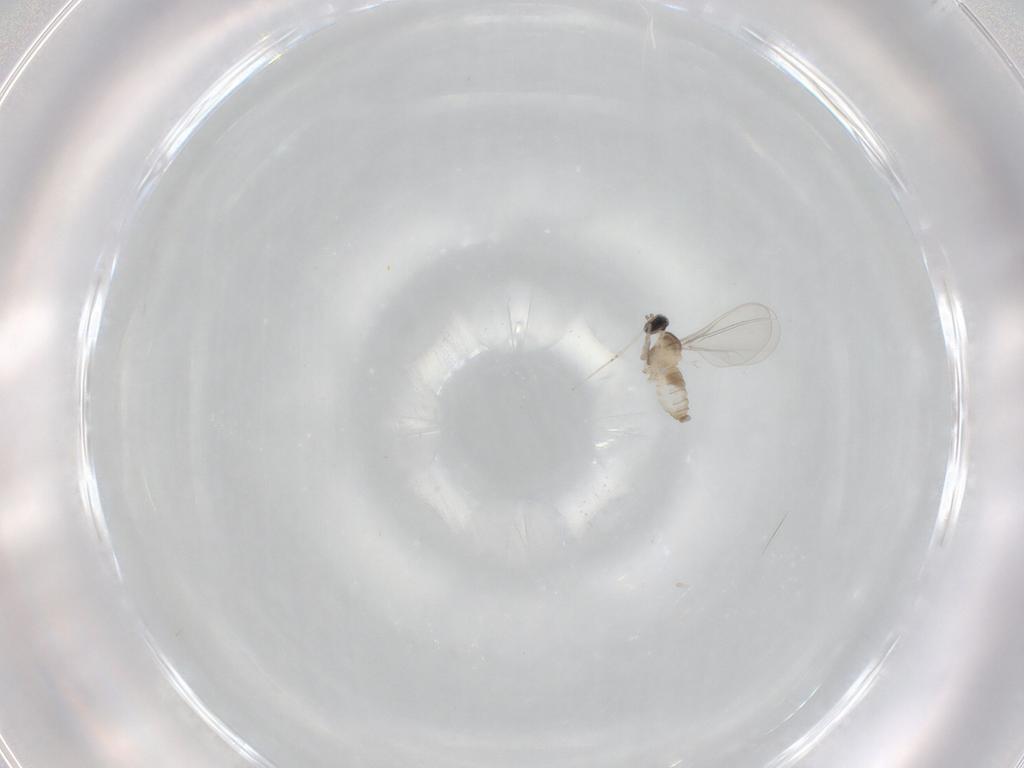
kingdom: Animalia
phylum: Arthropoda
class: Insecta
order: Diptera
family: Cecidomyiidae
